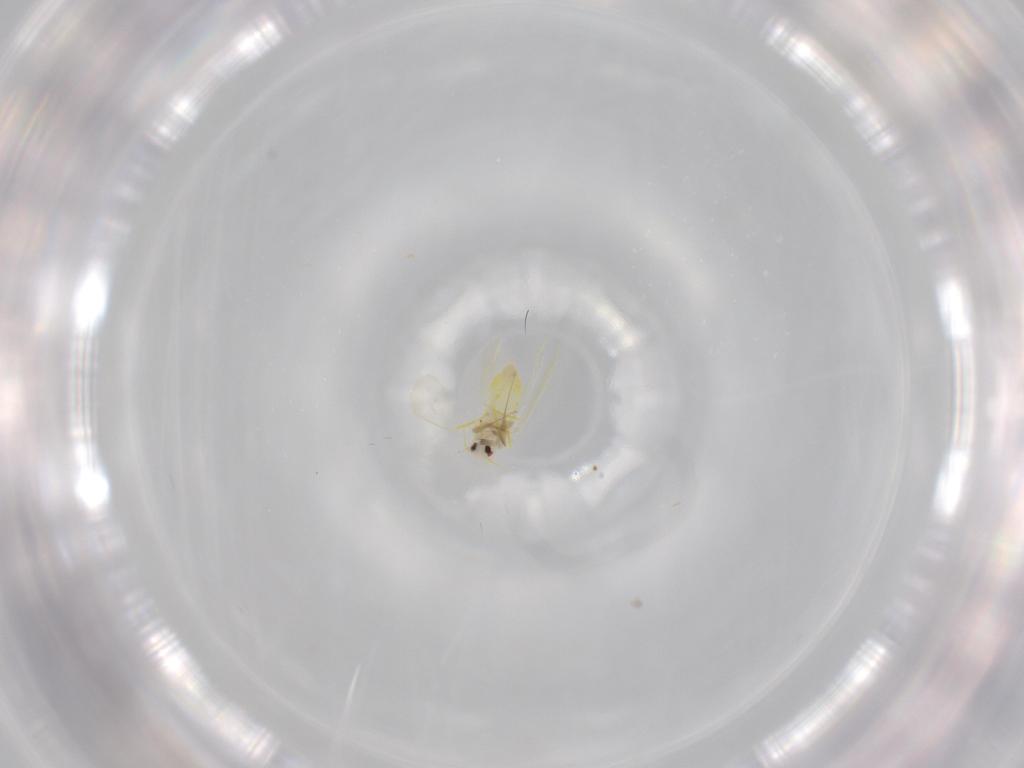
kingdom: Animalia
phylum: Arthropoda
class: Insecta
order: Hemiptera
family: Aleyrodidae
